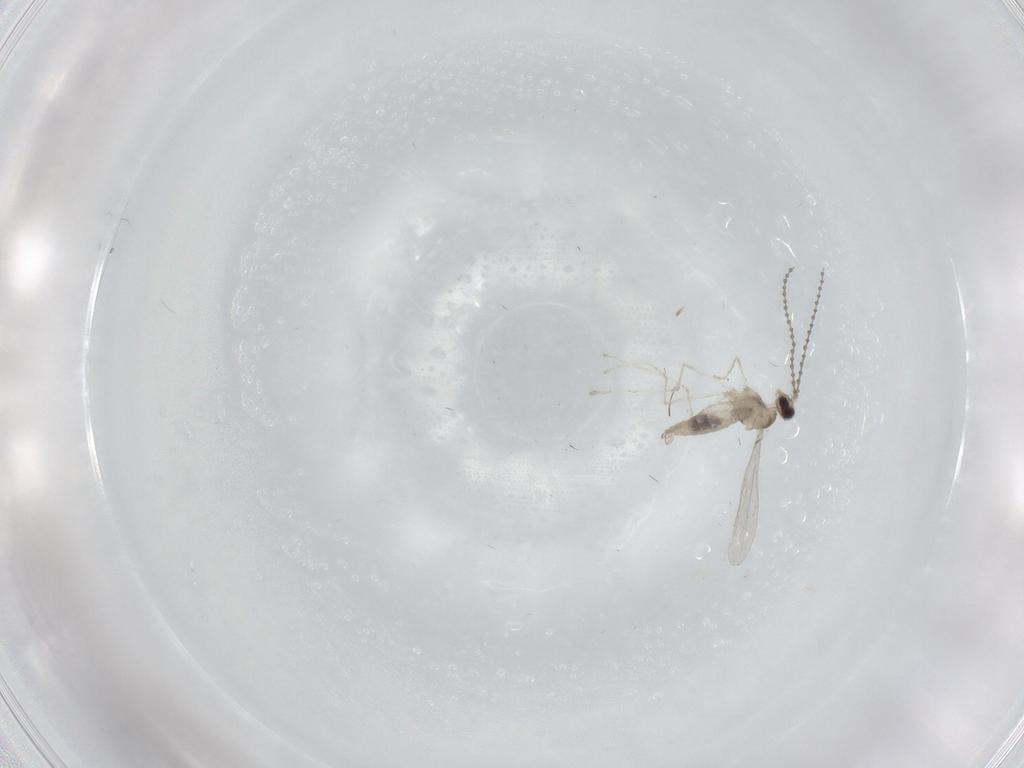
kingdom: Animalia
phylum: Arthropoda
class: Insecta
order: Diptera
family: Cecidomyiidae
